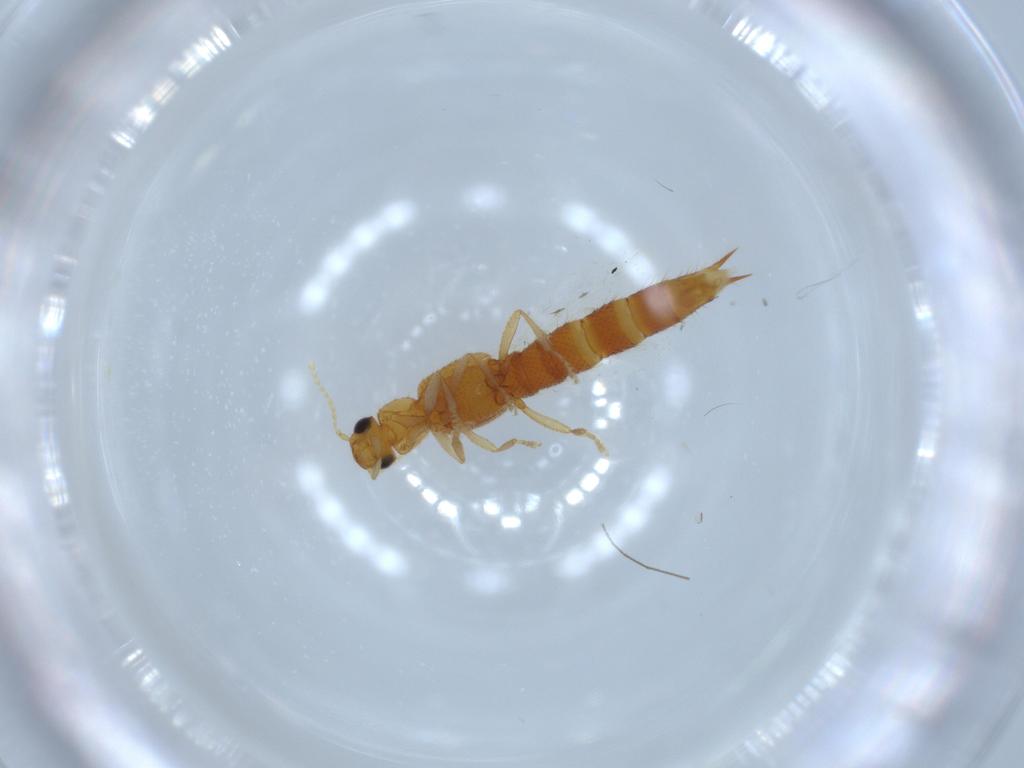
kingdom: Animalia
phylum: Arthropoda
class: Insecta
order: Coleoptera
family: Staphylinidae
